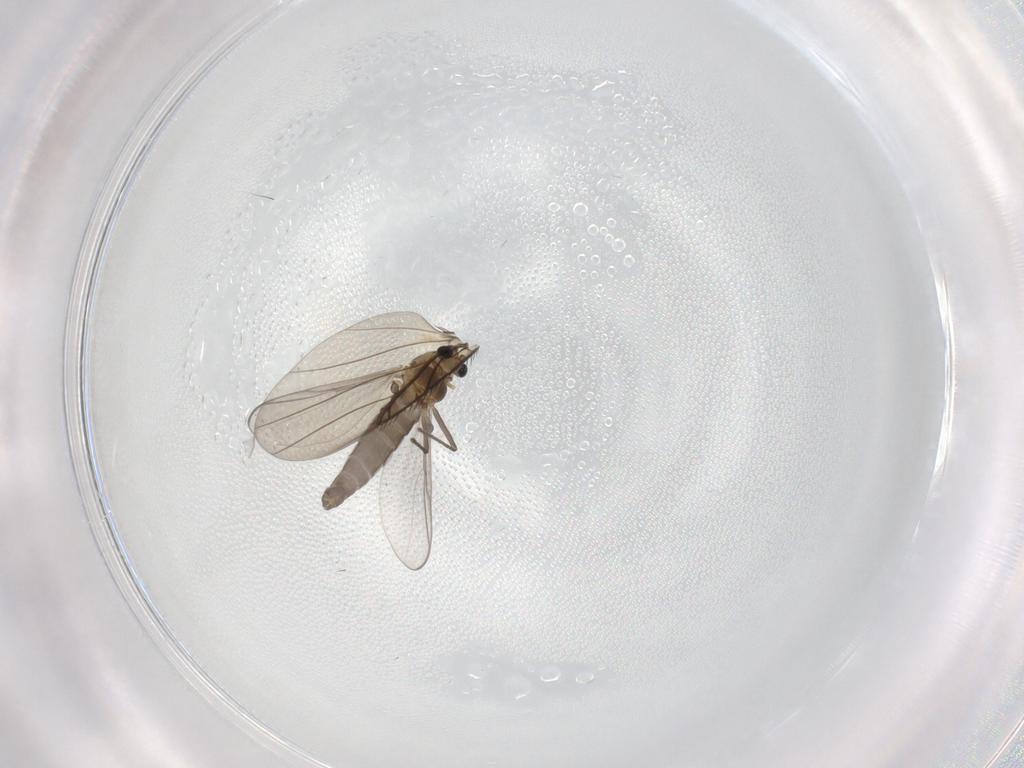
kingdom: Animalia
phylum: Arthropoda
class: Insecta
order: Diptera
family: Chironomidae
